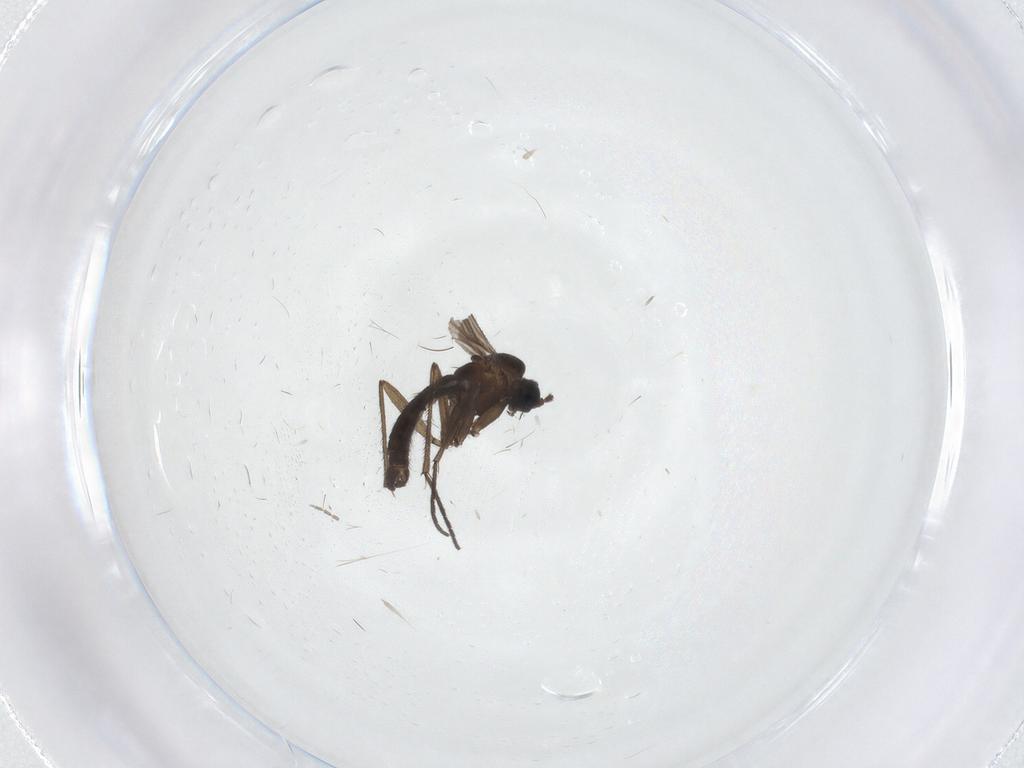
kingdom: Animalia
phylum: Arthropoda
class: Insecta
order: Diptera
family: Sciaridae
